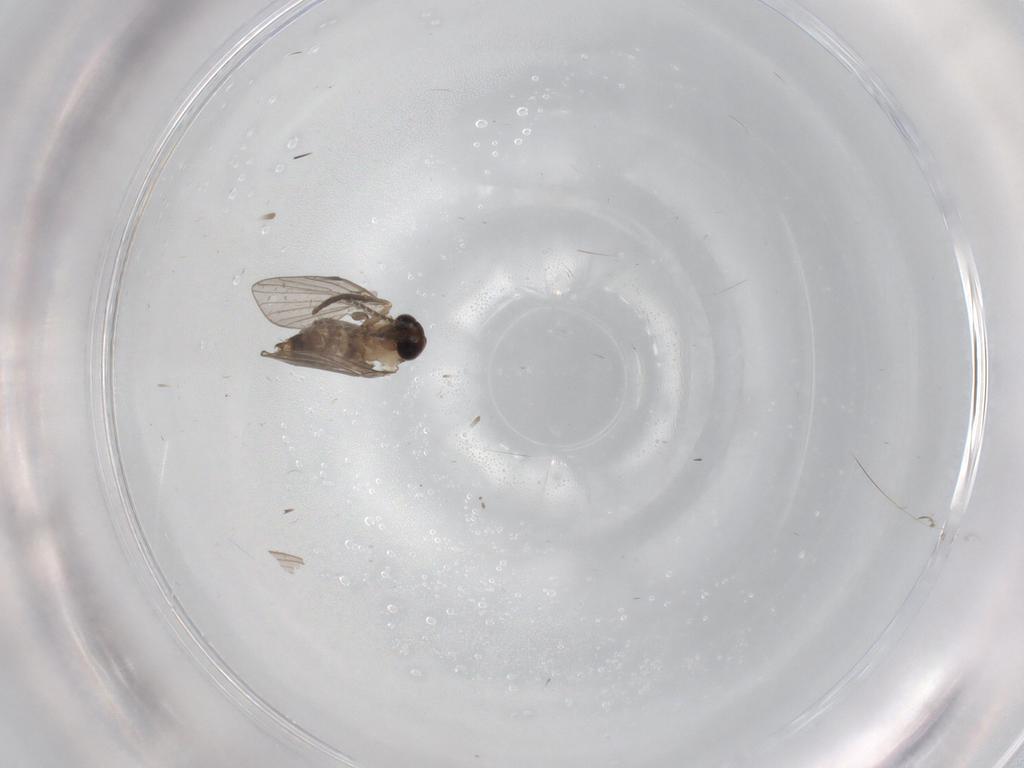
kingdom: Animalia
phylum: Arthropoda
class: Insecta
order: Diptera
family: Psychodidae
